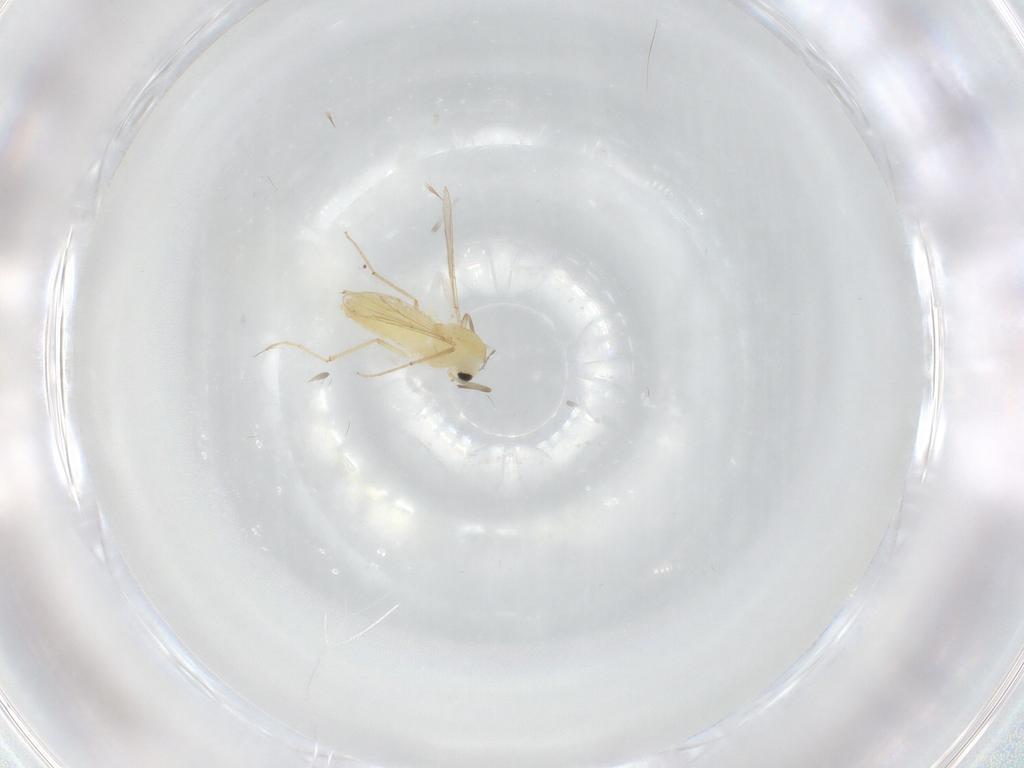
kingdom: Animalia
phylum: Arthropoda
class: Insecta
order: Diptera
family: Chironomidae
